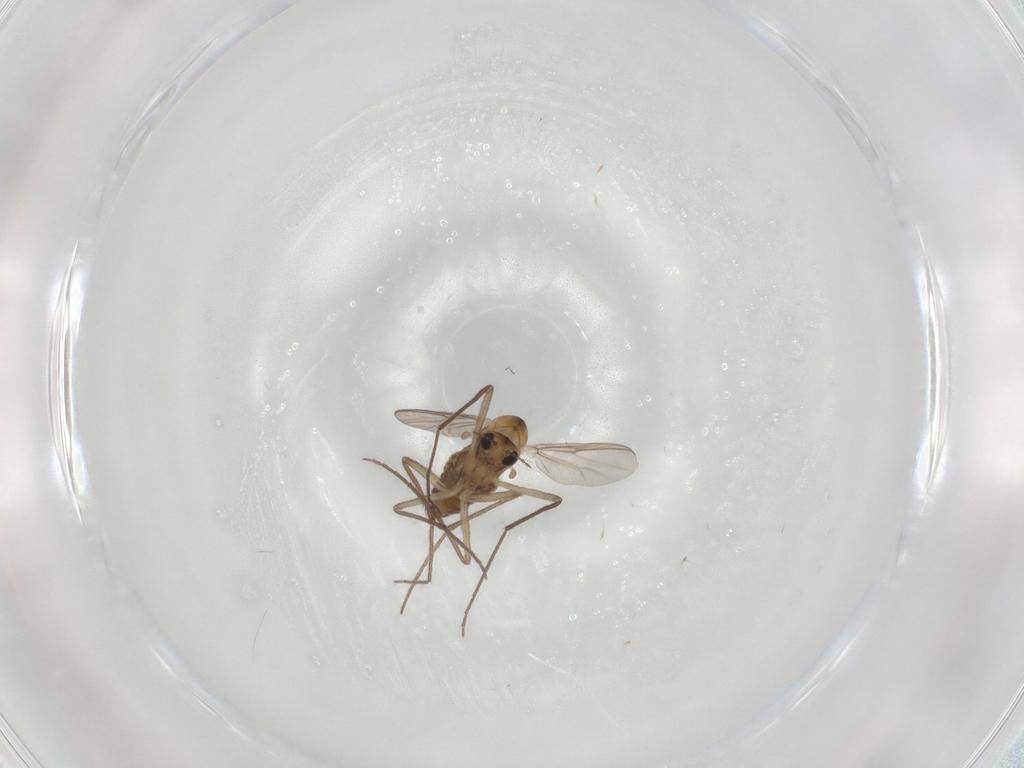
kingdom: Animalia
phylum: Arthropoda
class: Insecta
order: Diptera
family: Chironomidae
